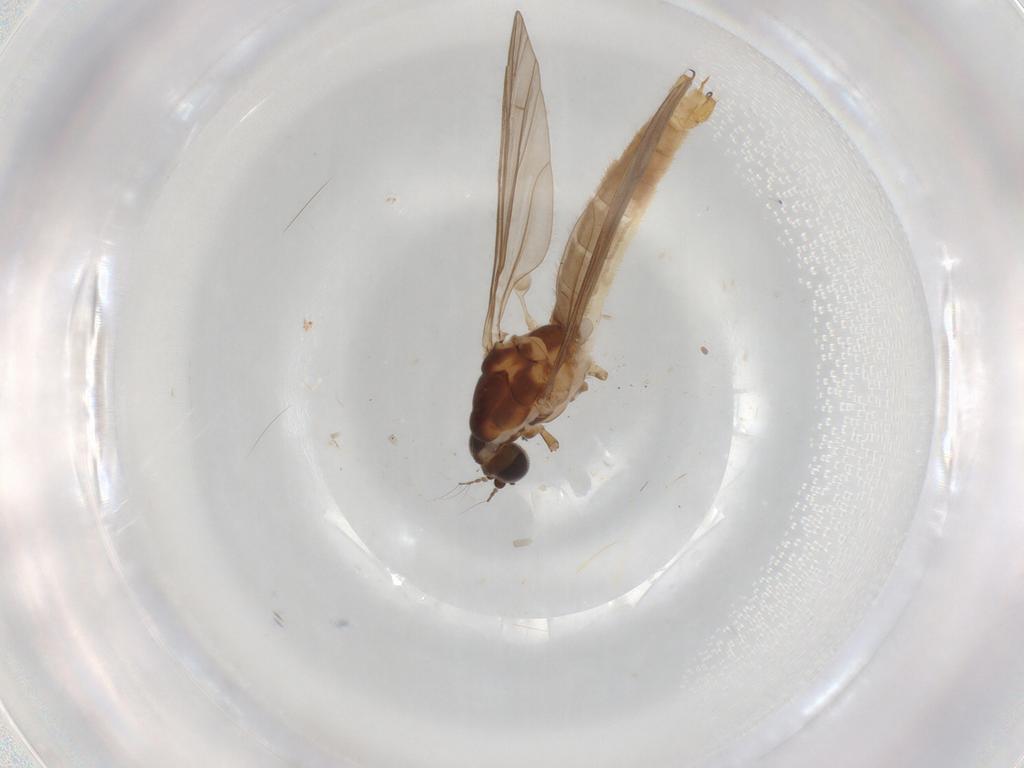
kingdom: Animalia
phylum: Arthropoda
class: Insecta
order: Diptera
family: Limoniidae
